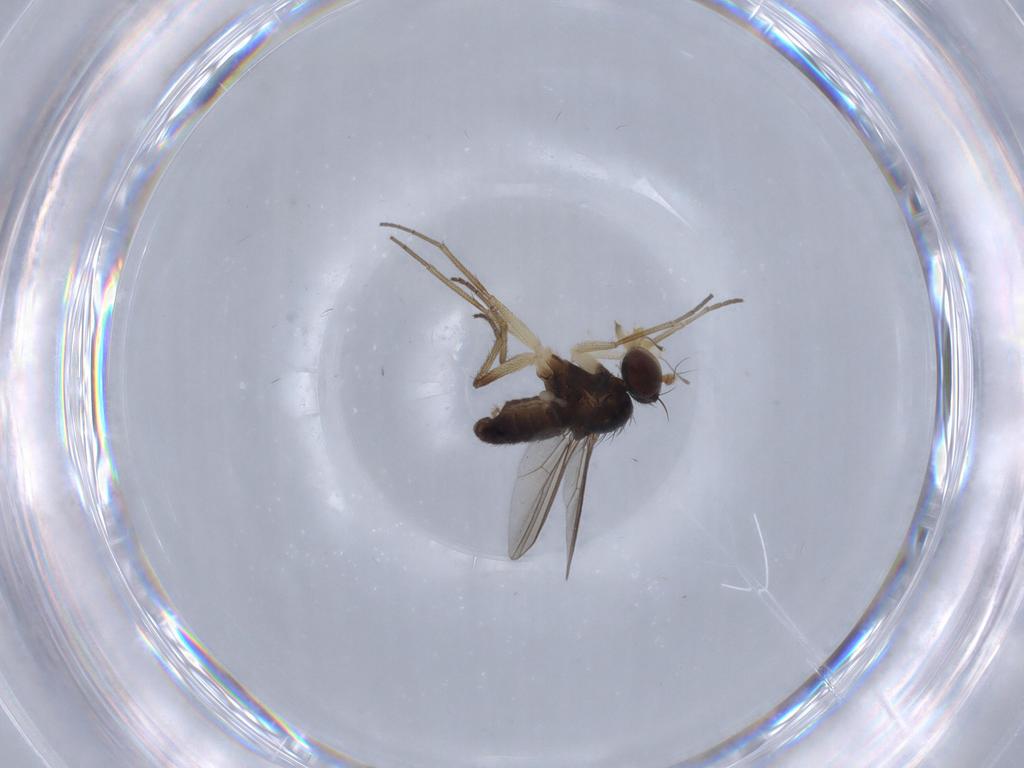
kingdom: Animalia
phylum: Arthropoda
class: Insecta
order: Diptera
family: Dolichopodidae
